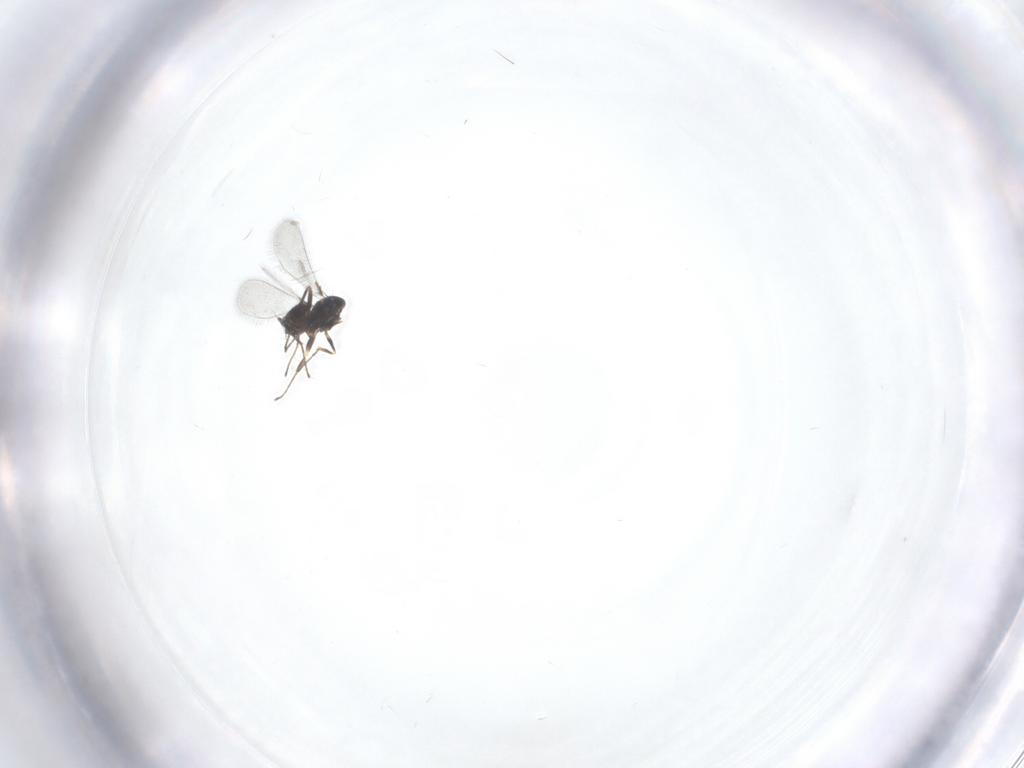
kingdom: Animalia
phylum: Arthropoda
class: Insecta
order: Hymenoptera
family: Mymaridae
